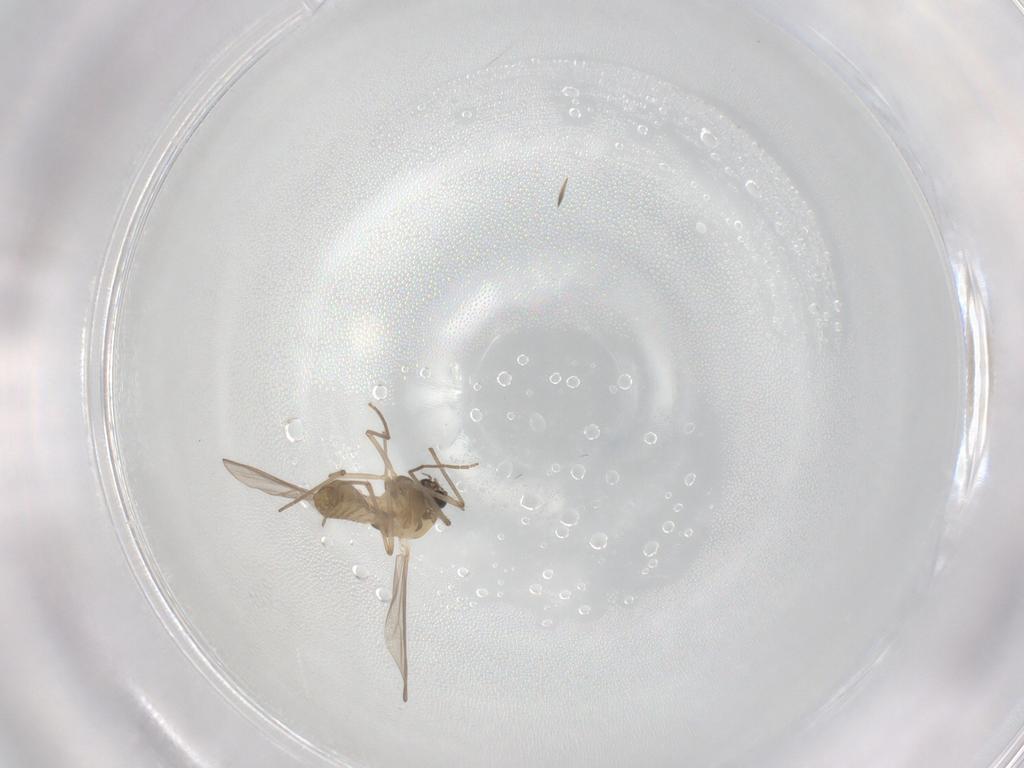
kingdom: Animalia
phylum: Arthropoda
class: Insecta
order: Diptera
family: Chironomidae
